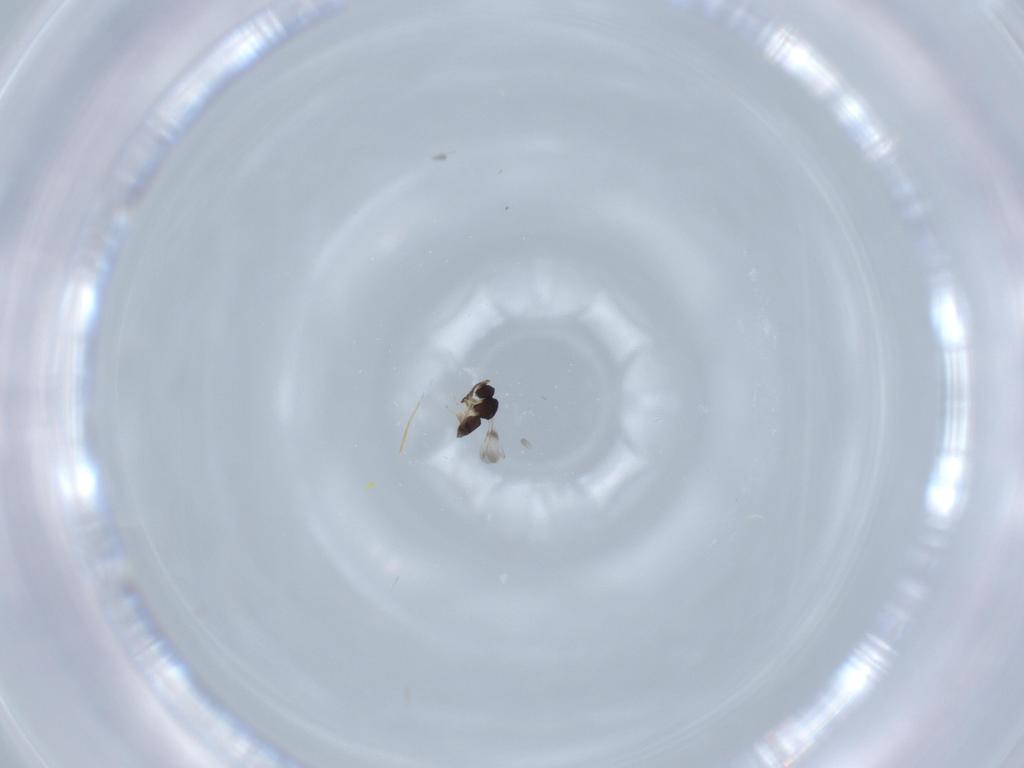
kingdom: Animalia
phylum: Arthropoda
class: Insecta
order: Hymenoptera
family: Ceraphronidae
